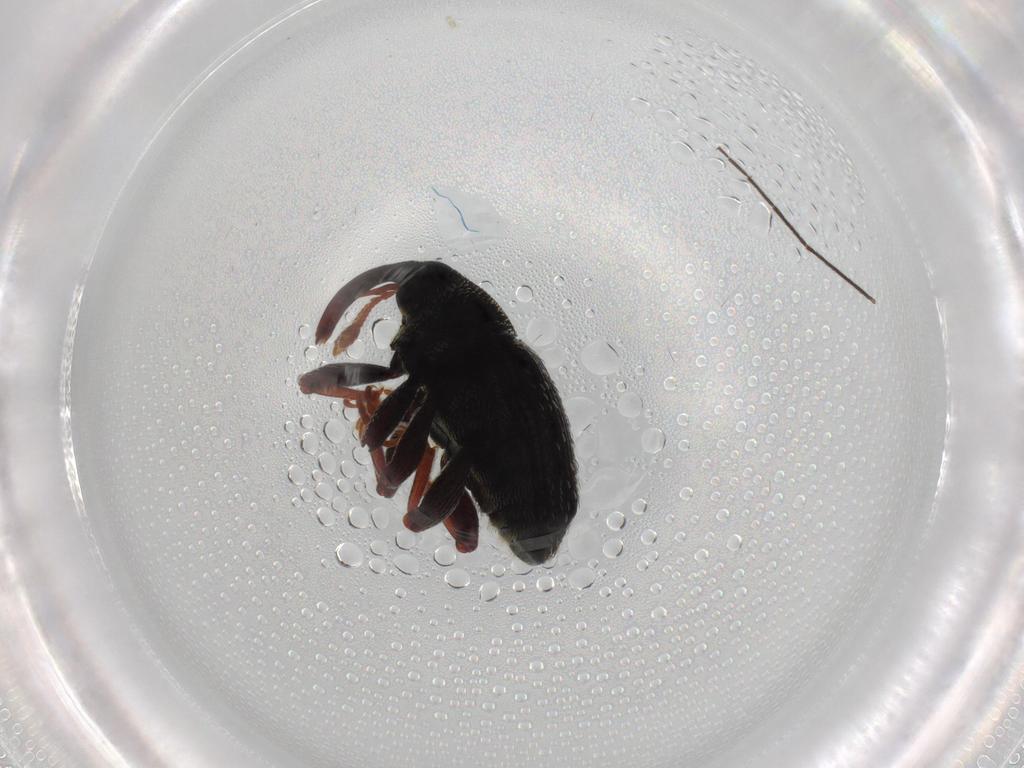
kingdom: Animalia
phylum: Arthropoda
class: Insecta
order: Coleoptera
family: Curculionidae
